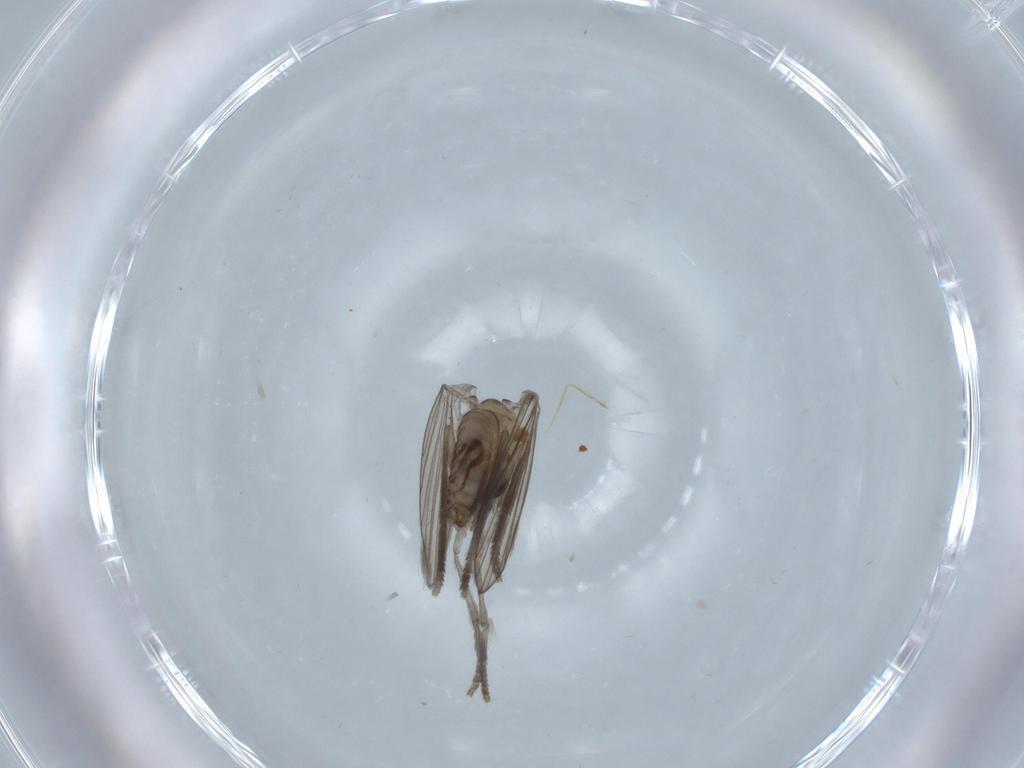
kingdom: Animalia
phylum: Arthropoda
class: Insecta
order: Diptera
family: Psychodidae
